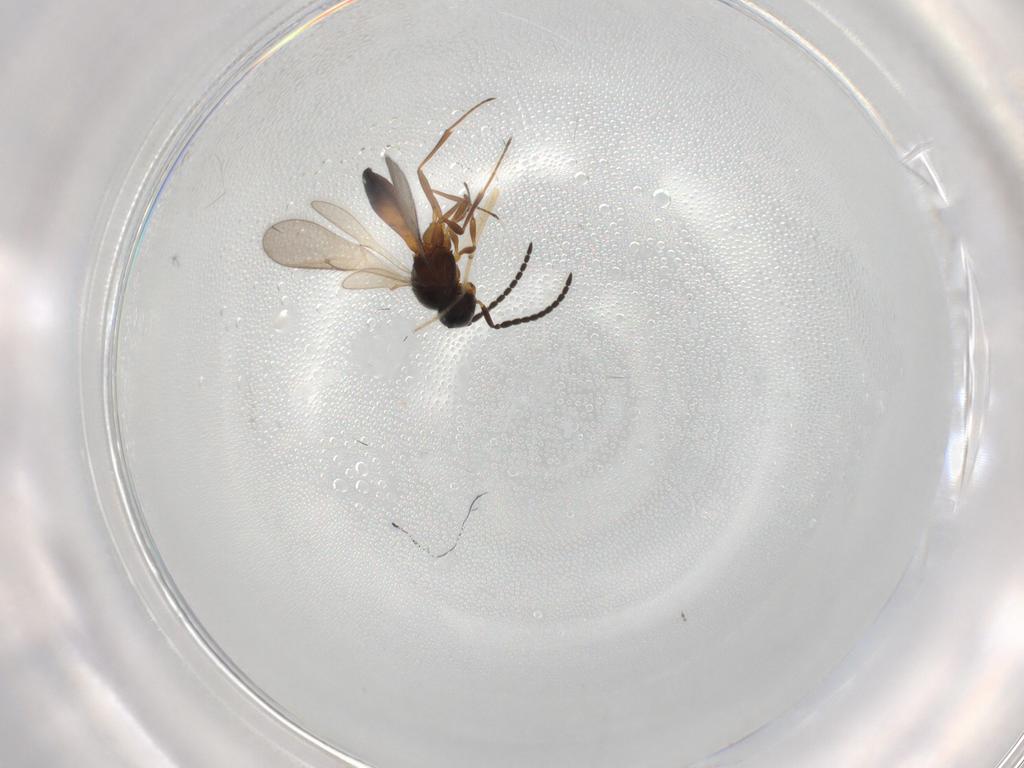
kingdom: Animalia
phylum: Arthropoda
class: Insecta
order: Hymenoptera
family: Scelionidae
